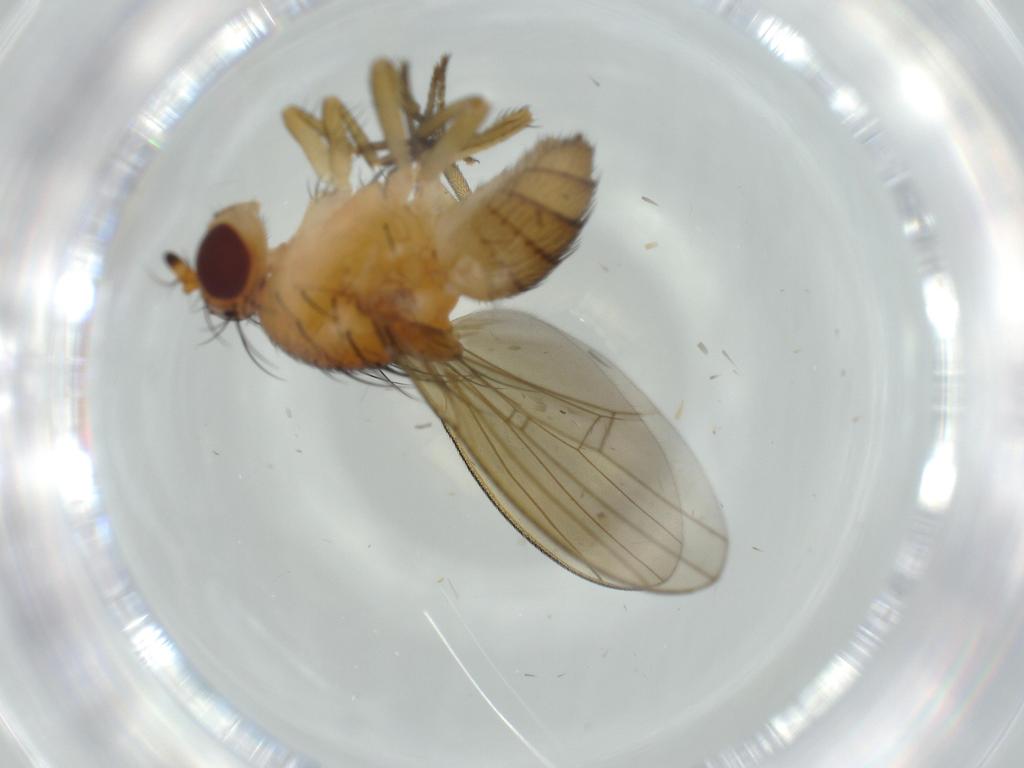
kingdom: Animalia
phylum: Arthropoda
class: Insecta
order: Diptera
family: Lauxaniidae
